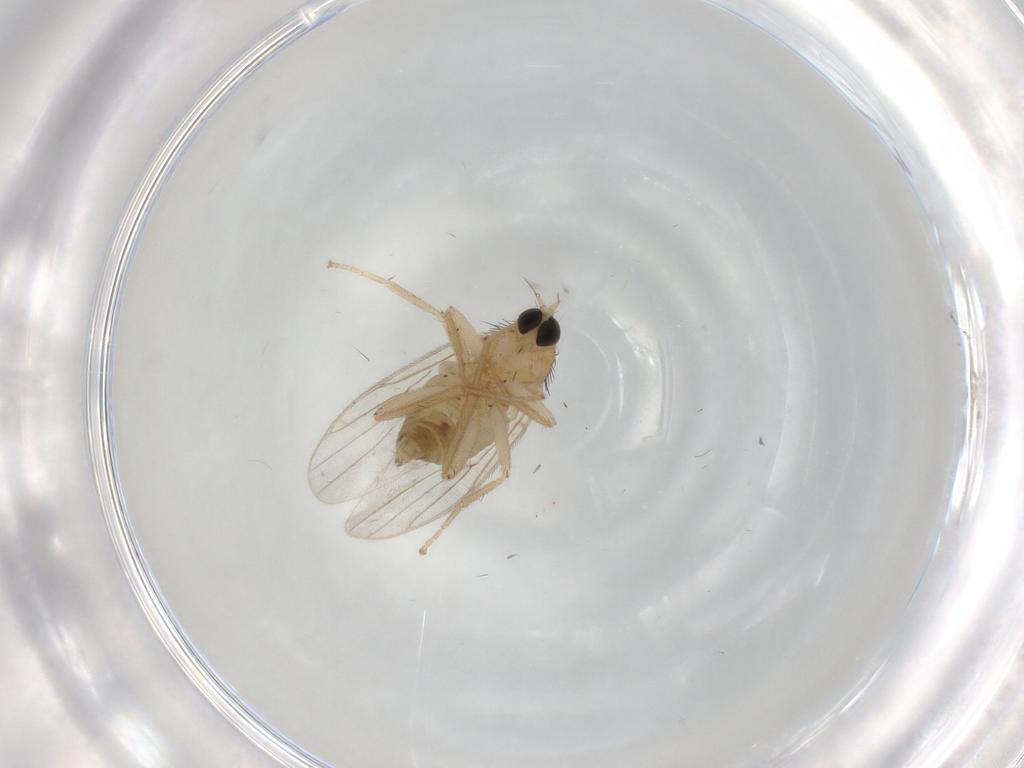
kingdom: Animalia
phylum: Arthropoda
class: Insecta
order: Diptera
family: Hybotidae
